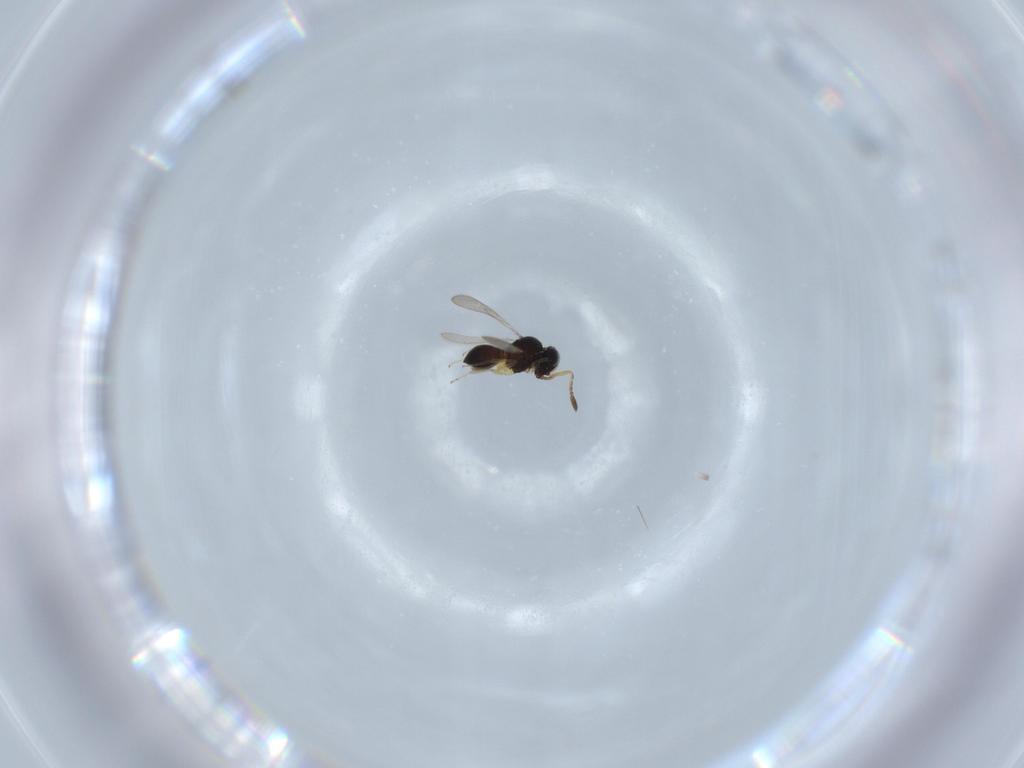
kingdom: Animalia
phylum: Arthropoda
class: Insecta
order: Hymenoptera
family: Scelionidae
